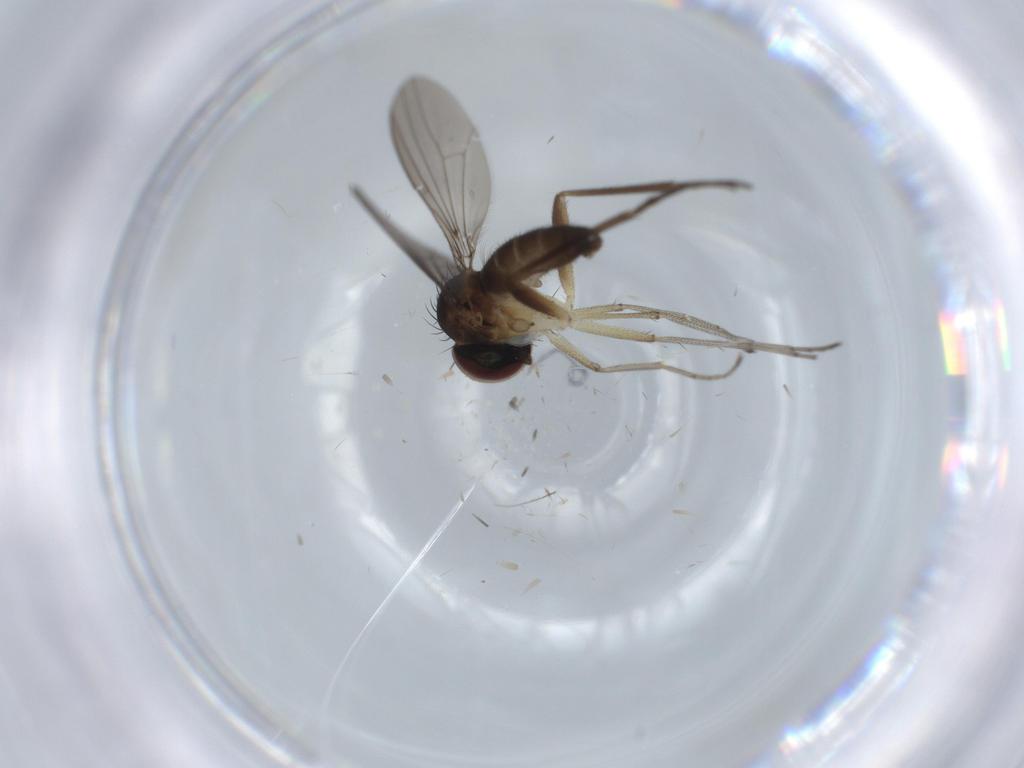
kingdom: Animalia
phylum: Arthropoda
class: Insecta
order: Diptera
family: Dolichopodidae
